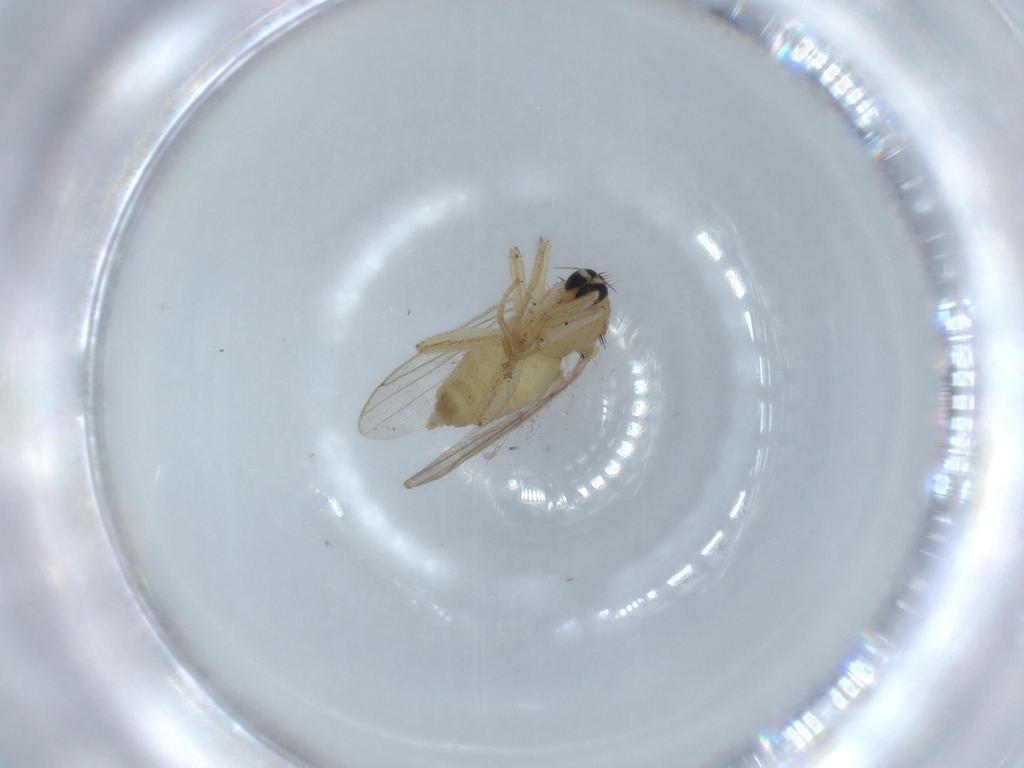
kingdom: Animalia
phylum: Arthropoda
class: Insecta
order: Diptera
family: Hybotidae
